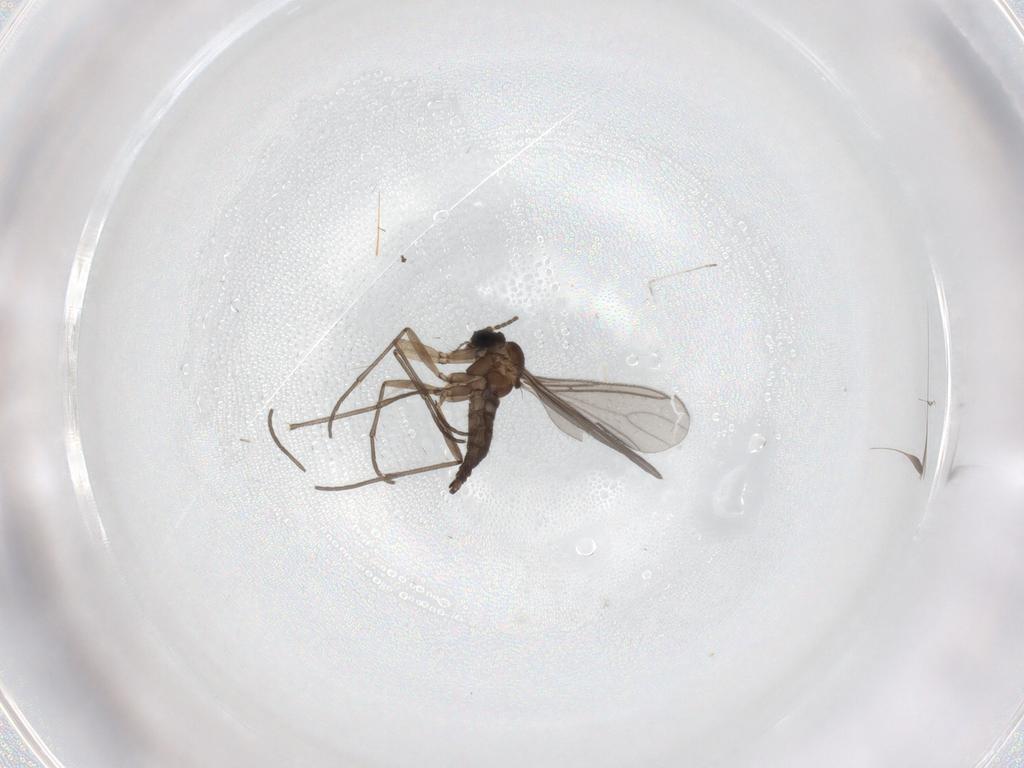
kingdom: Animalia
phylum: Arthropoda
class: Insecta
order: Diptera
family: Sciaridae
